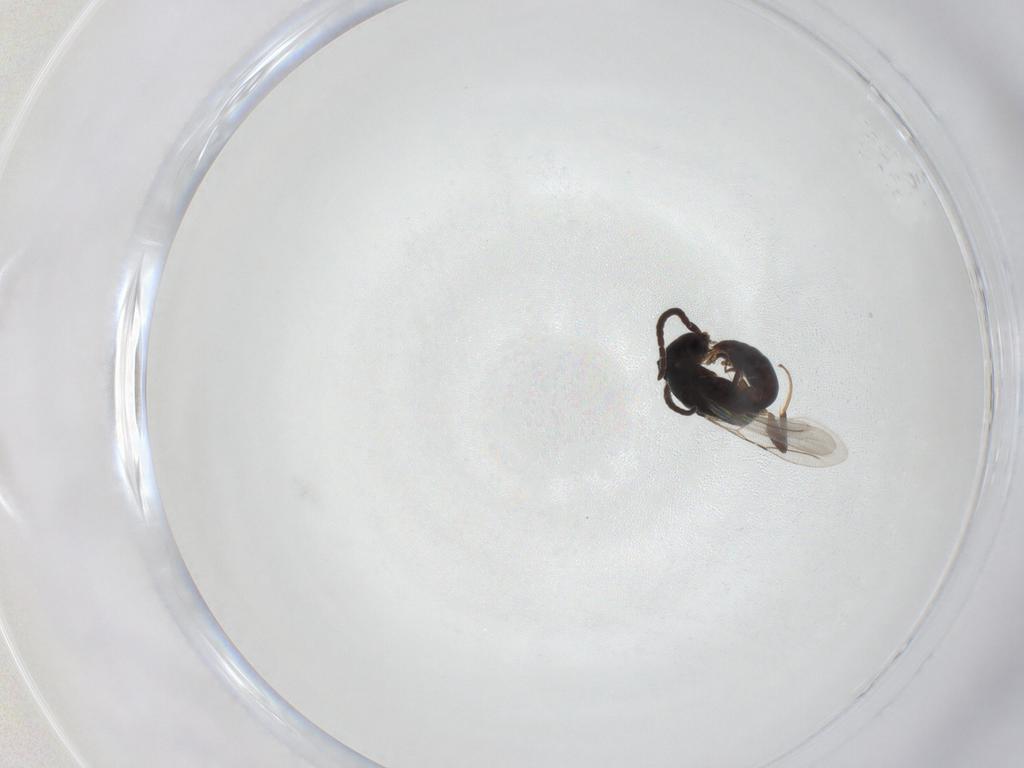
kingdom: Animalia
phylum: Arthropoda
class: Insecta
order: Hymenoptera
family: Bethylidae
